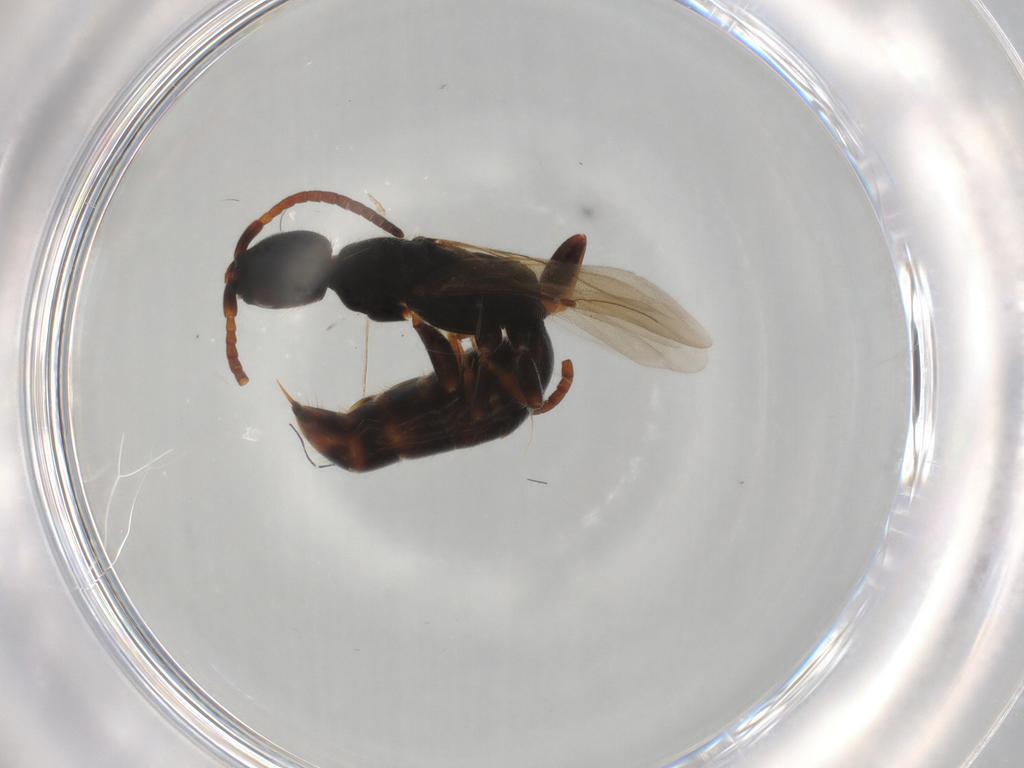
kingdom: Animalia
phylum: Arthropoda
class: Insecta
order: Hymenoptera
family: Bethylidae
